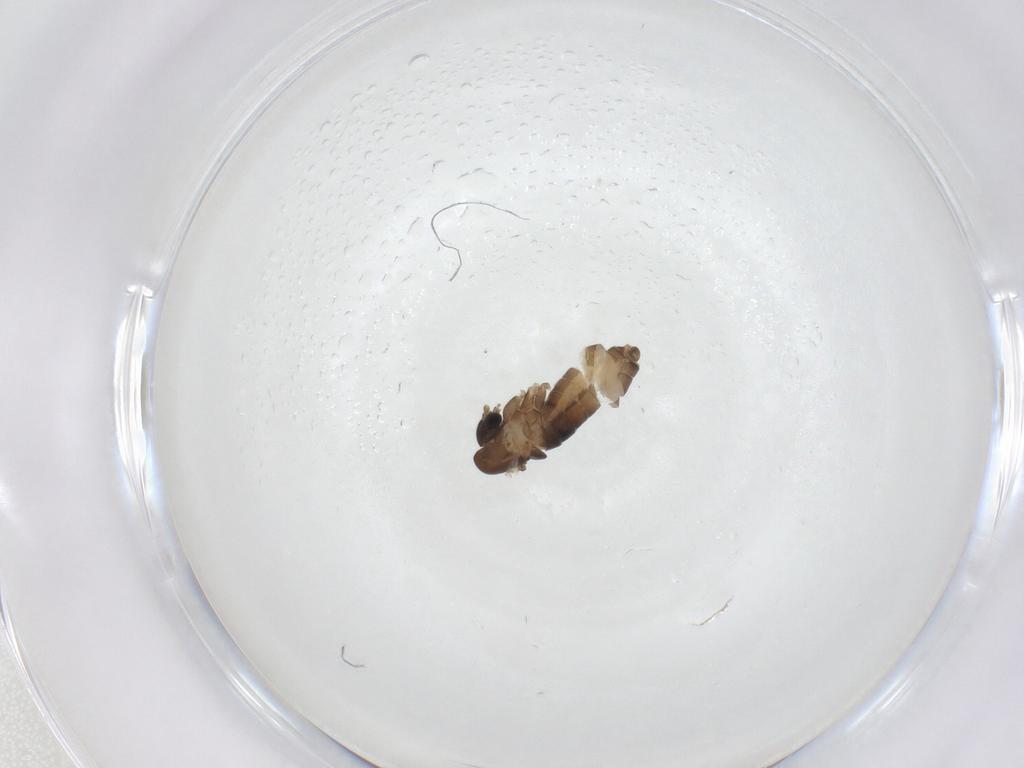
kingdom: Animalia
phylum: Arthropoda
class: Insecta
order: Diptera
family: Psychodidae
